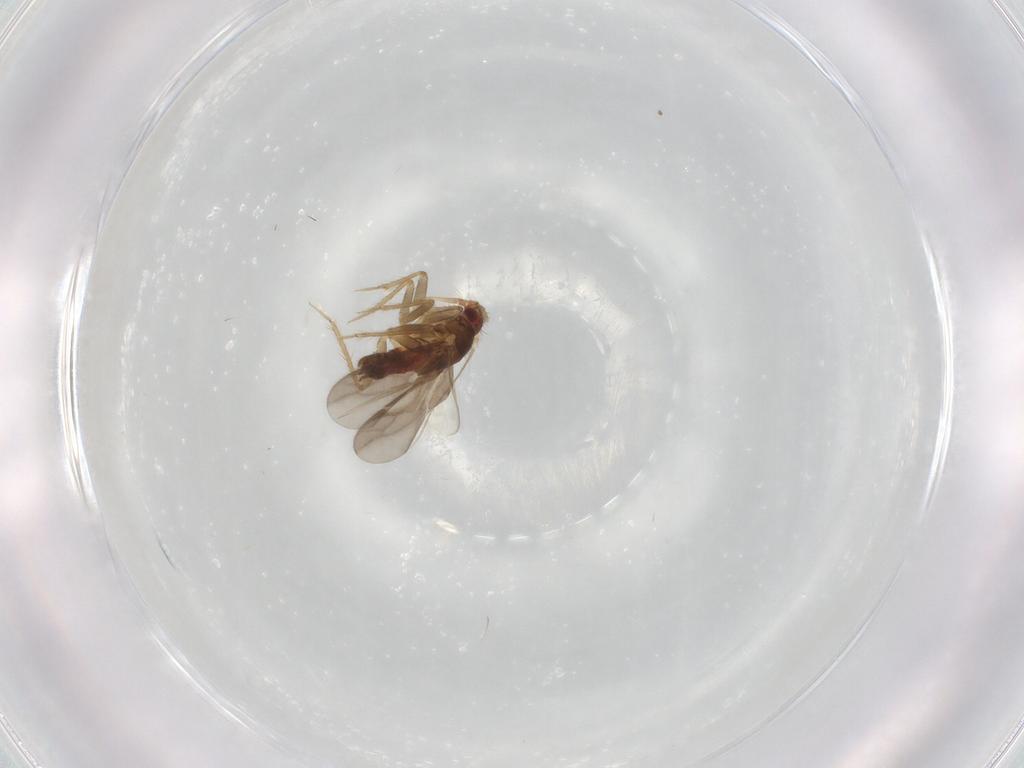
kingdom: Animalia
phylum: Arthropoda
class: Insecta
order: Hemiptera
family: Ceratocombidae
